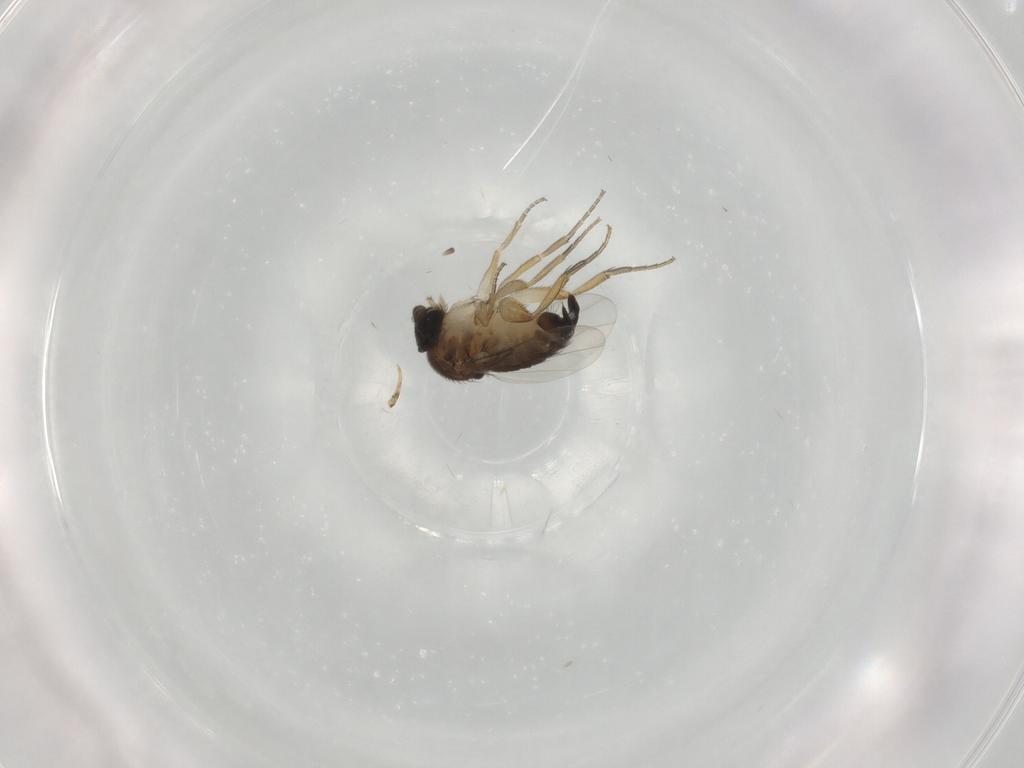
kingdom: Animalia
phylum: Arthropoda
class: Insecta
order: Diptera
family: Phoridae
